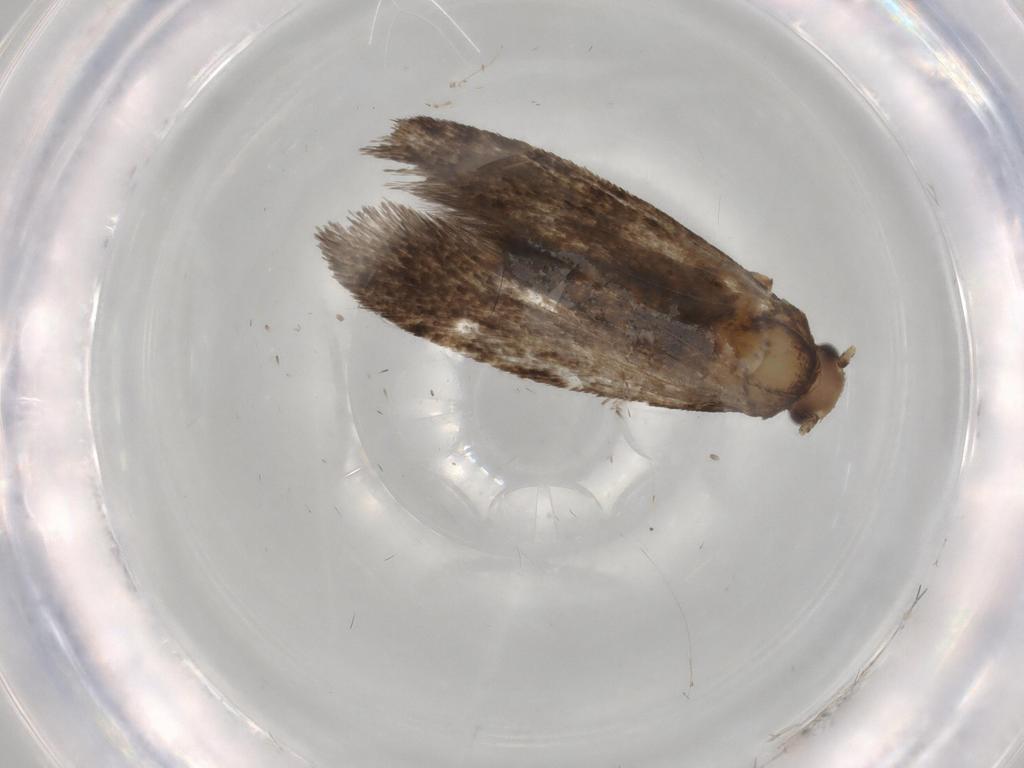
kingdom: Animalia
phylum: Arthropoda
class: Insecta
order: Lepidoptera
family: Tineidae
